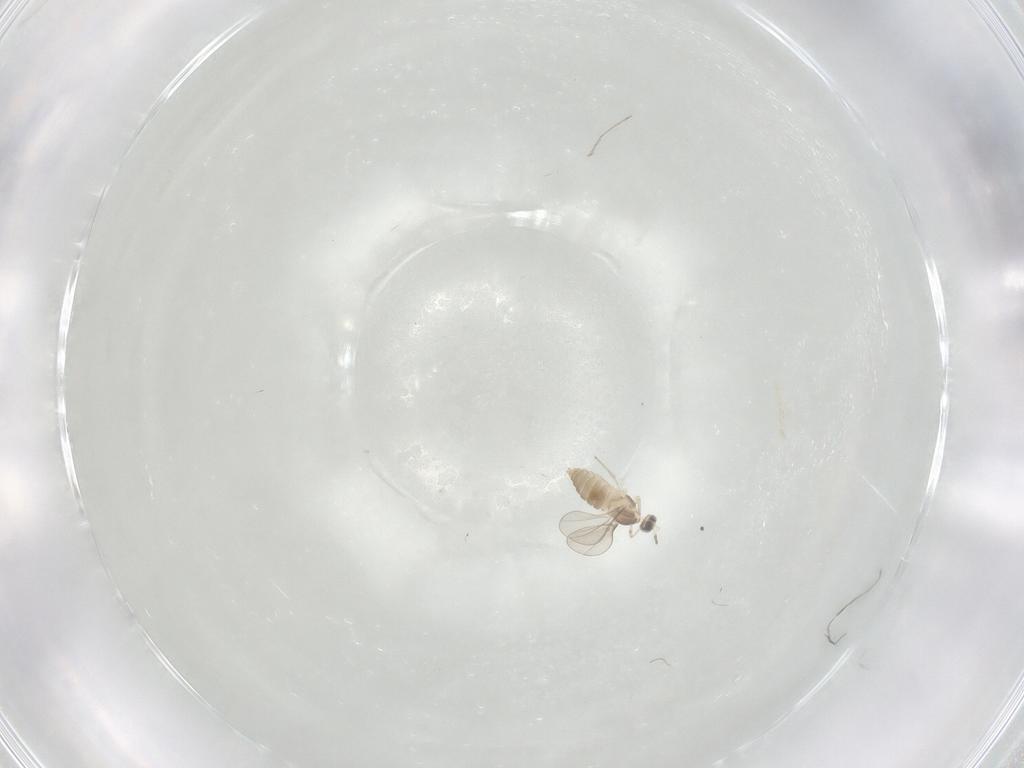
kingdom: Animalia
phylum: Arthropoda
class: Insecta
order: Diptera
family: Cecidomyiidae
